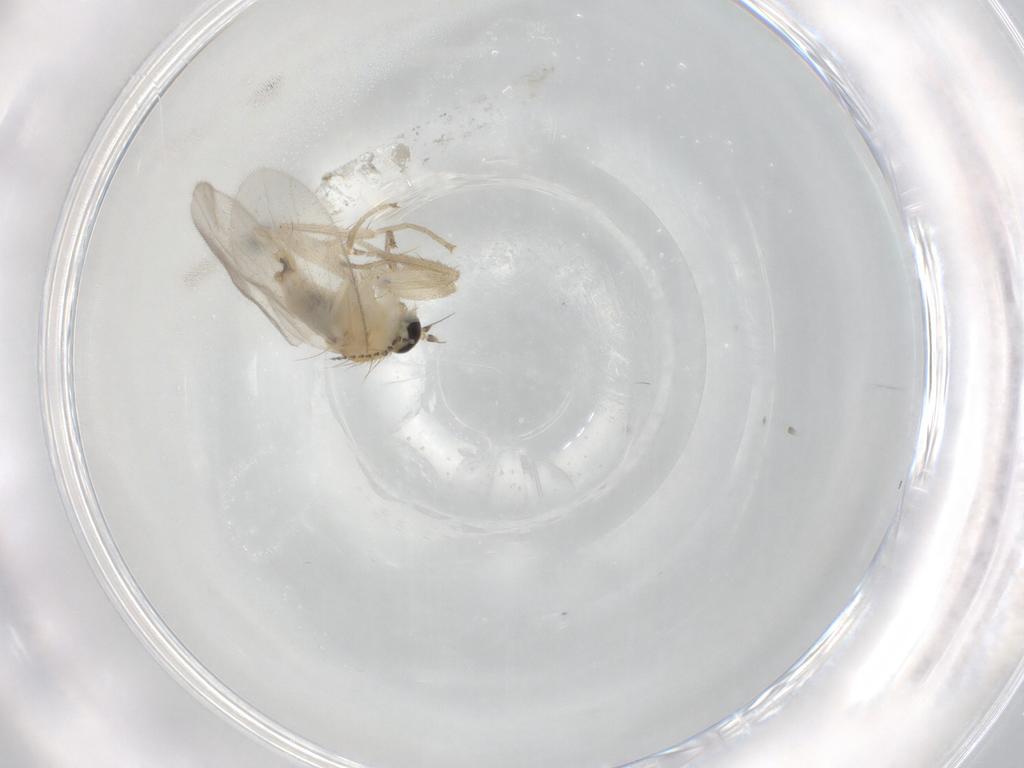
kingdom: Animalia
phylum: Arthropoda
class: Insecta
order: Diptera
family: Hybotidae
